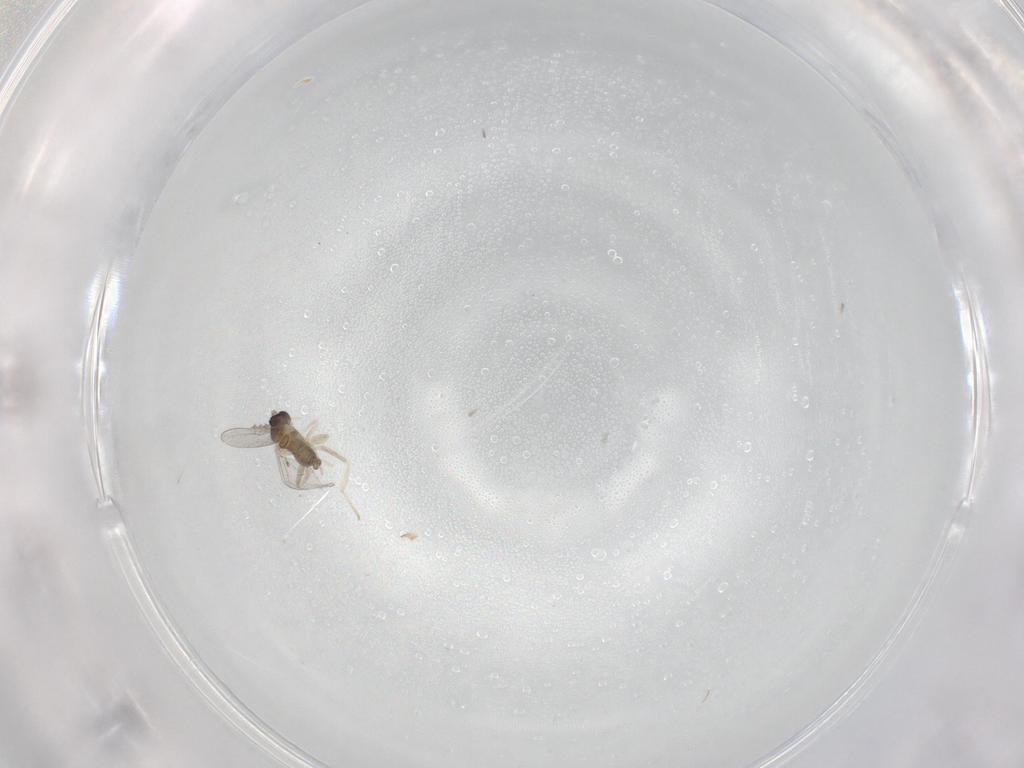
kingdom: Animalia
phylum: Arthropoda
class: Insecta
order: Diptera
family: Cecidomyiidae
